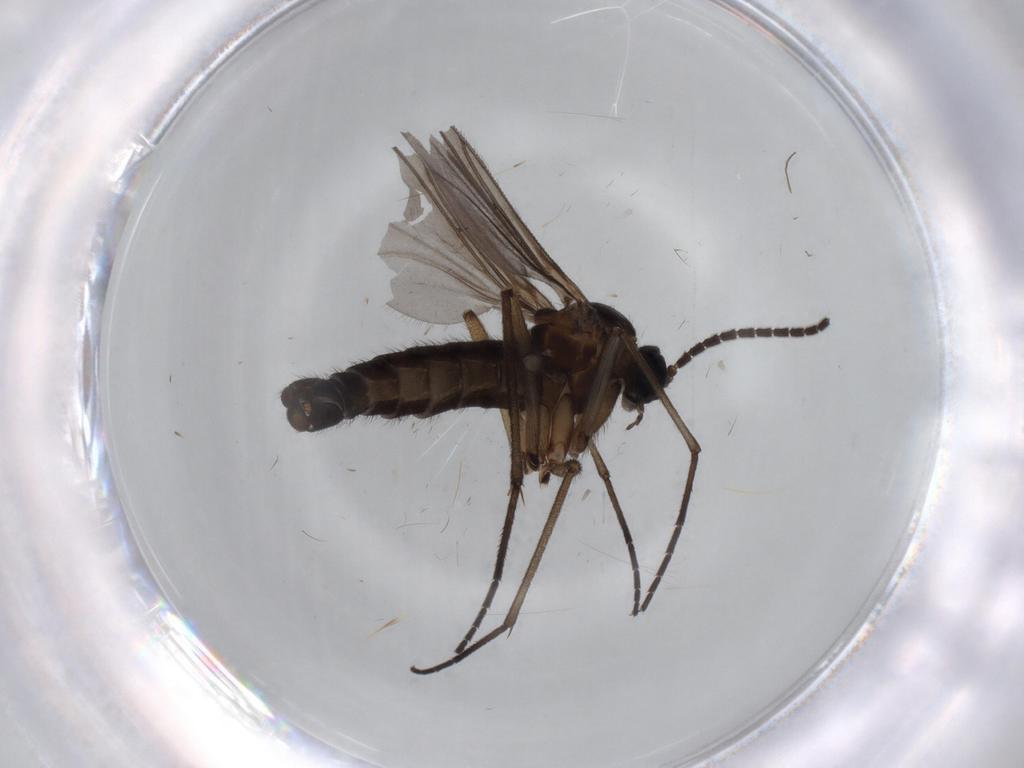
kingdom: Animalia
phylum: Arthropoda
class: Insecta
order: Diptera
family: Sciaridae
